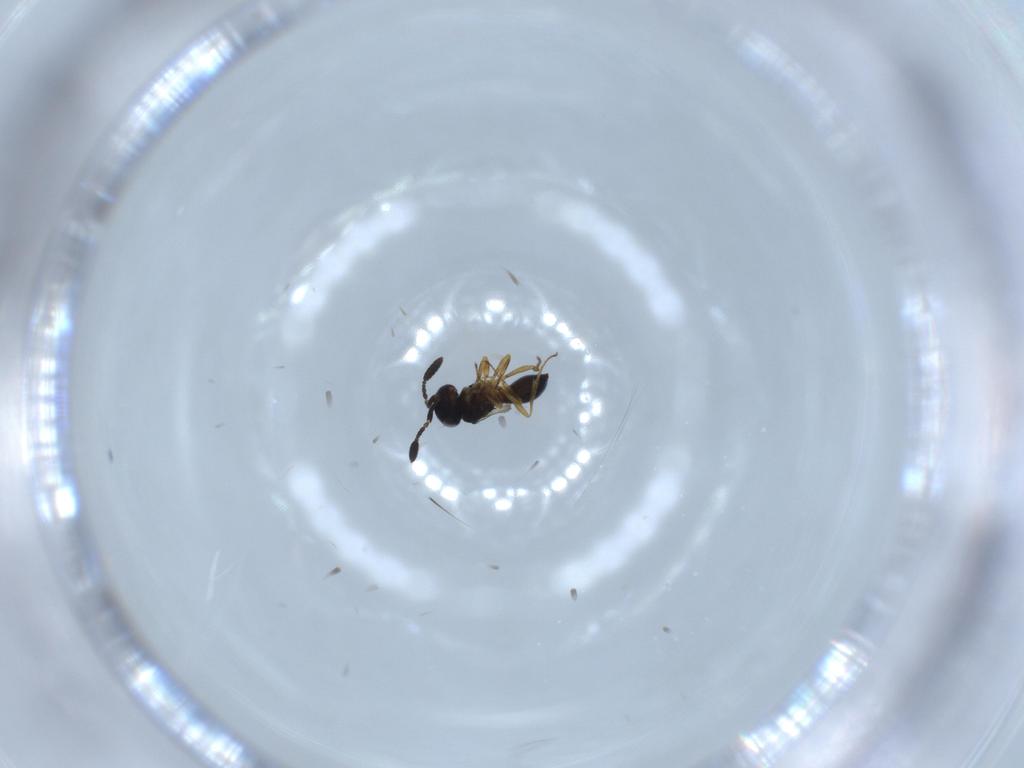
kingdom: Animalia
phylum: Arthropoda
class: Insecta
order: Hymenoptera
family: Scelionidae
